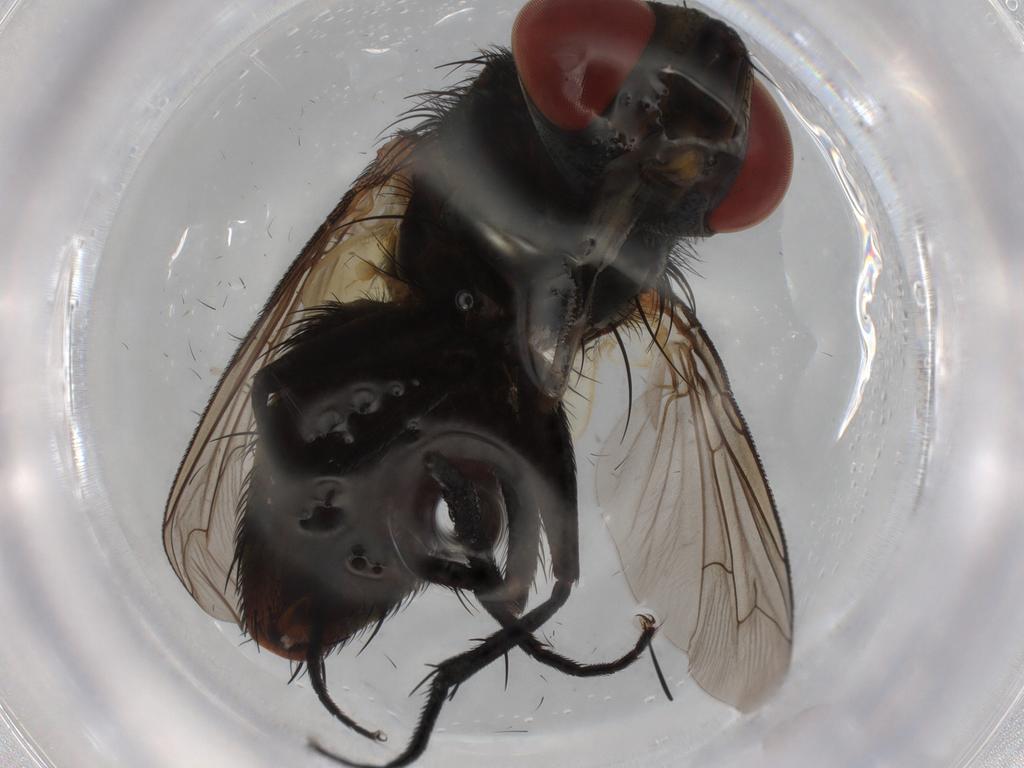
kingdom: Animalia
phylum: Arthropoda
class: Insecta
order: Diptera
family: Sarcophagidae
